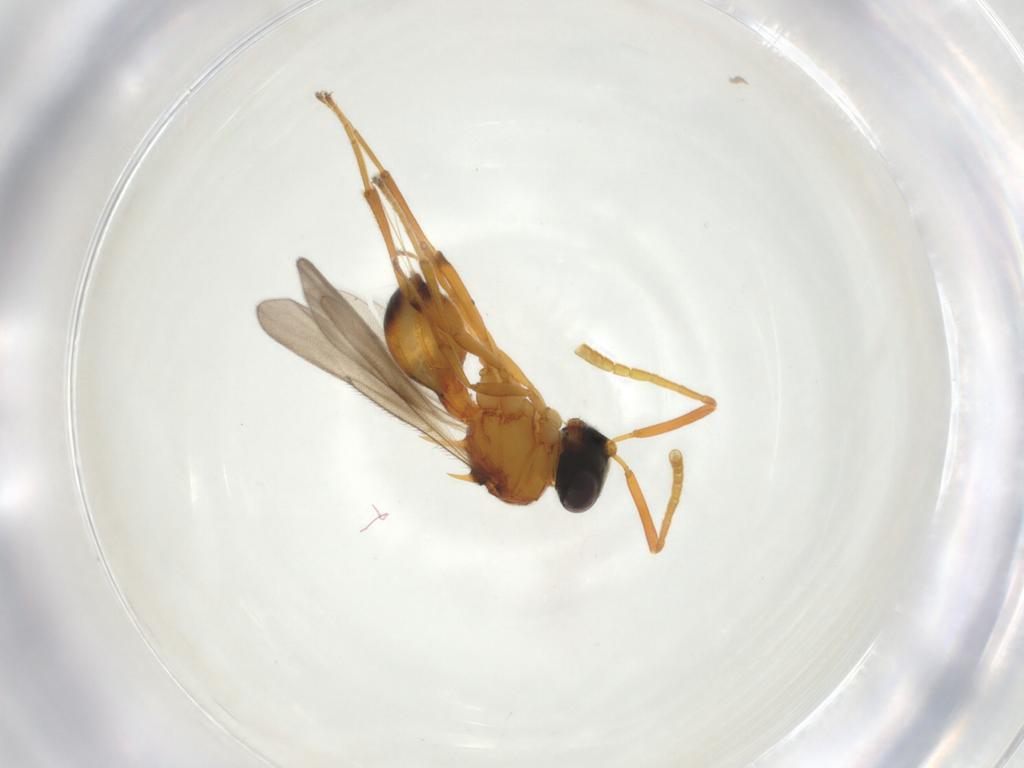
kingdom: Animalia
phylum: Arthropoda
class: Insecta
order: Hymenoptera
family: Scelionidae
